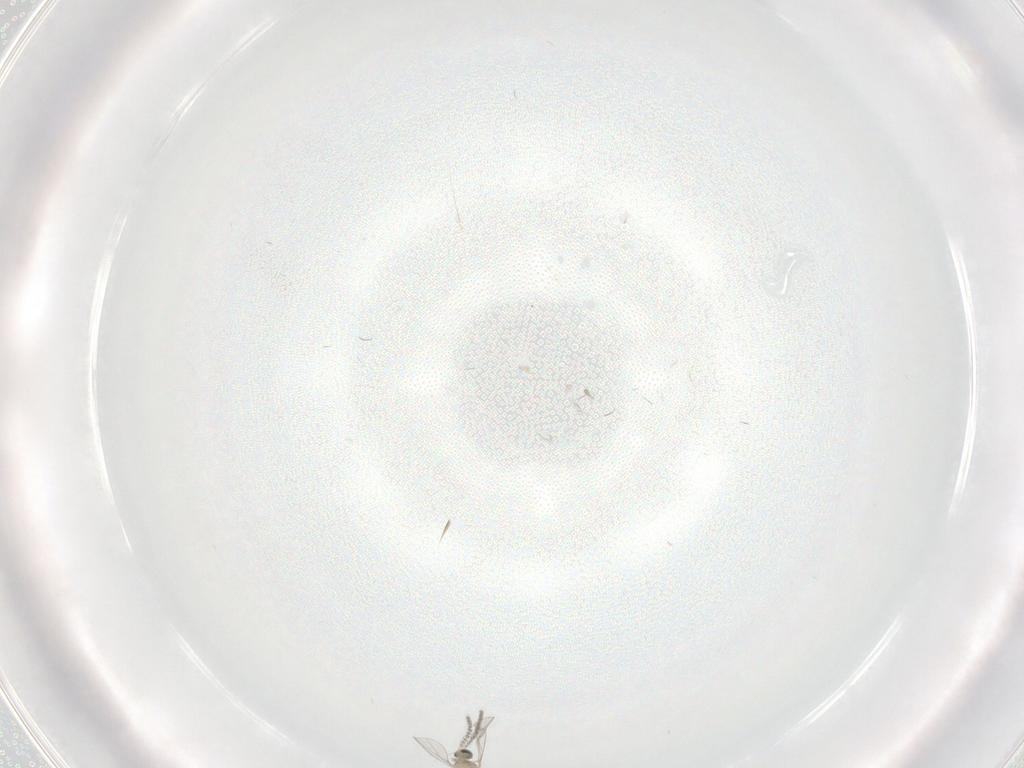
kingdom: Animalia
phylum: Arthropoda
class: Insecta
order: Diptera
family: Cecidomyiidae
